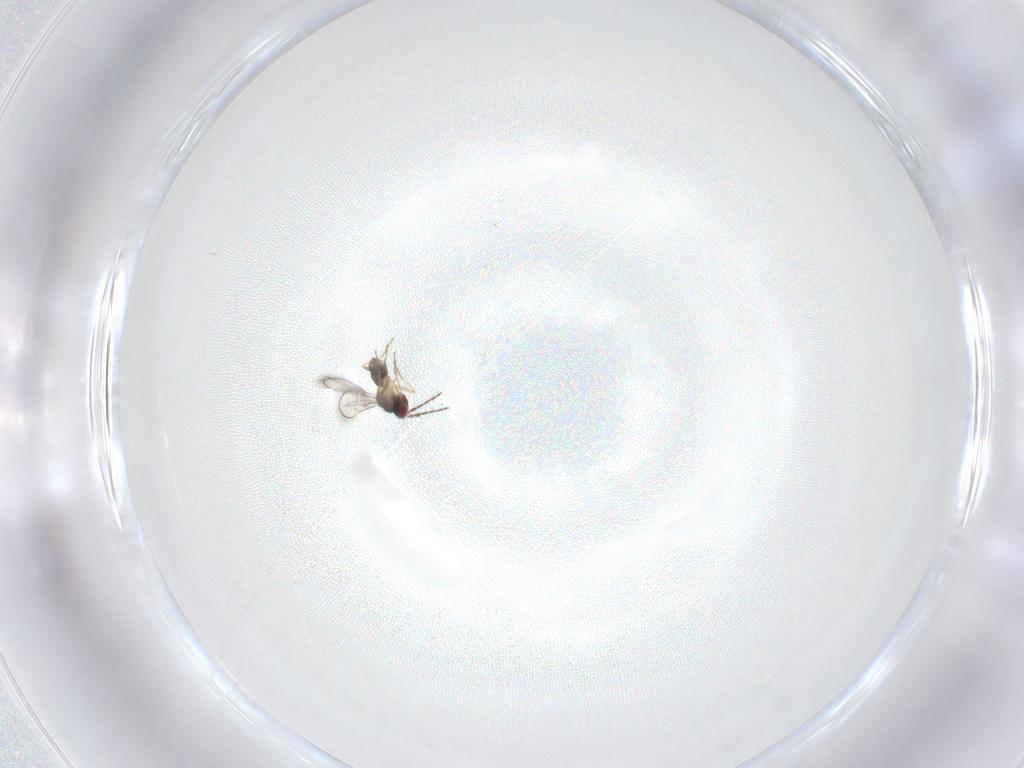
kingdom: Animalia
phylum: Arthropoda
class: Insecta
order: Hymenoptera
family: Eulophidae
